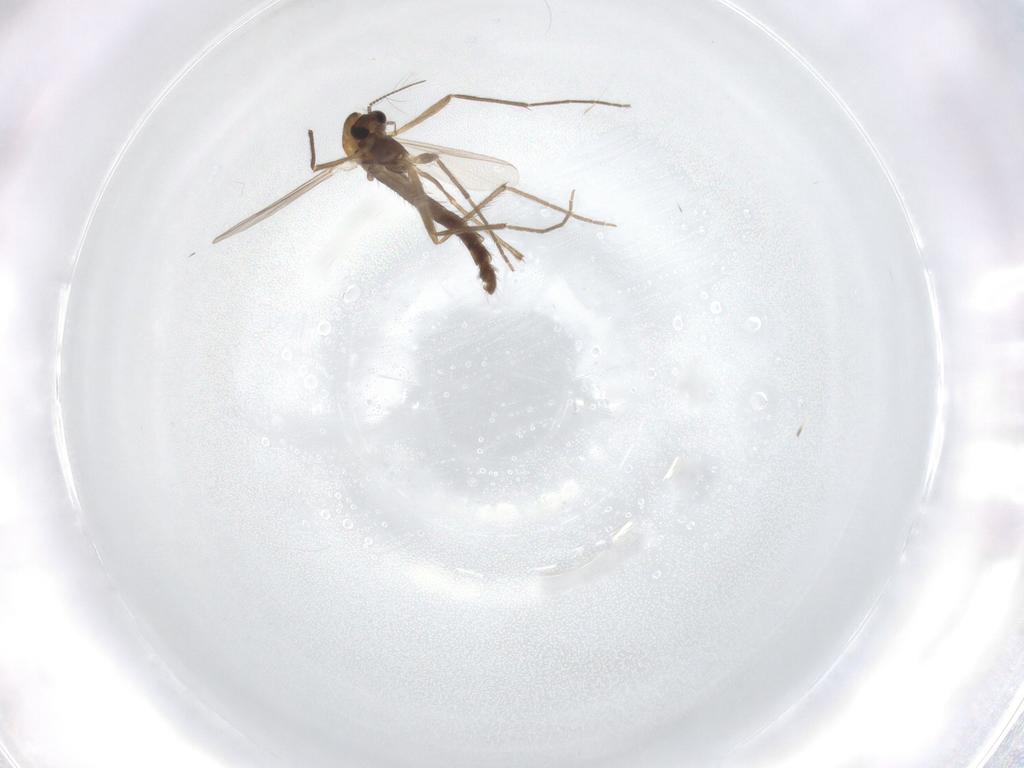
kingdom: Animalia
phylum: Arthropoda
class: Insecta
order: Diptera
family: Chironomidae
